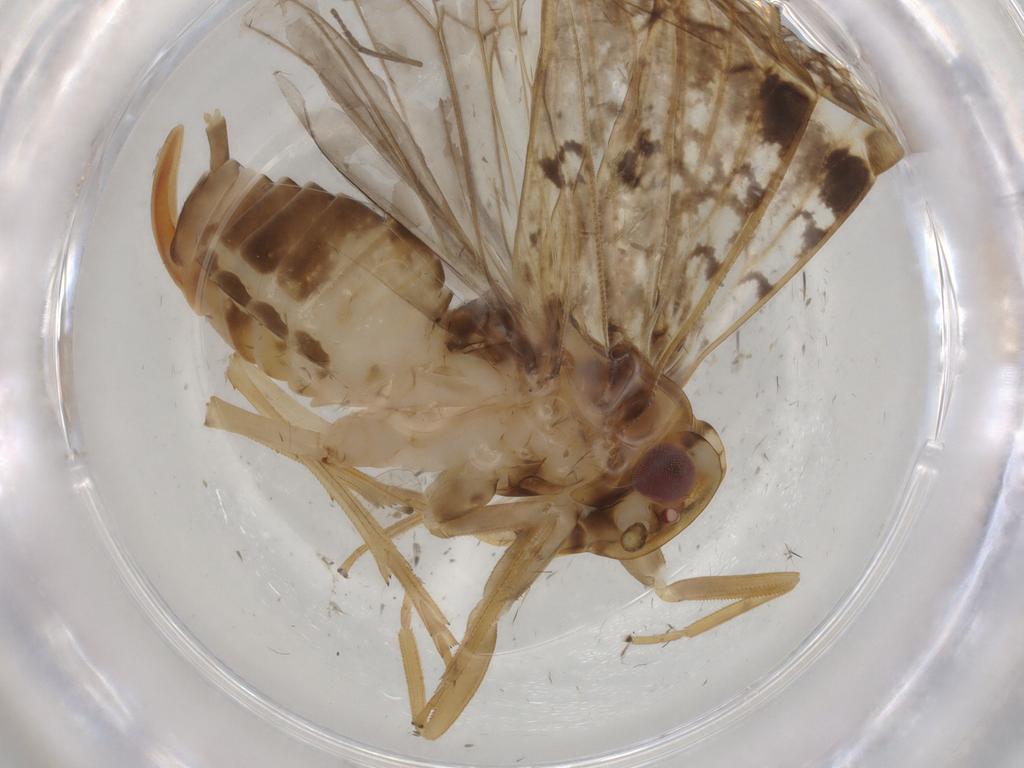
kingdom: Animalia
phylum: Arthropoda
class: Insecta
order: Hemiptera
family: Cixiidae
